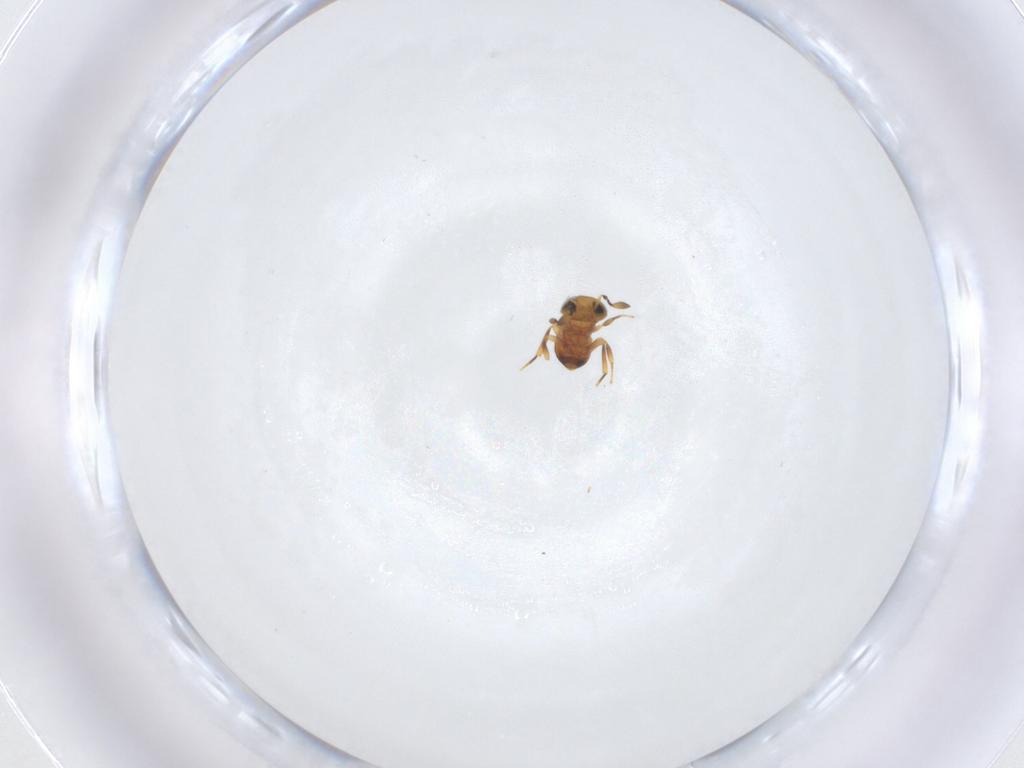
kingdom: Animalia
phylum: Arthropoda
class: Insecta
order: Hymenoptera
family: Scelionidae
